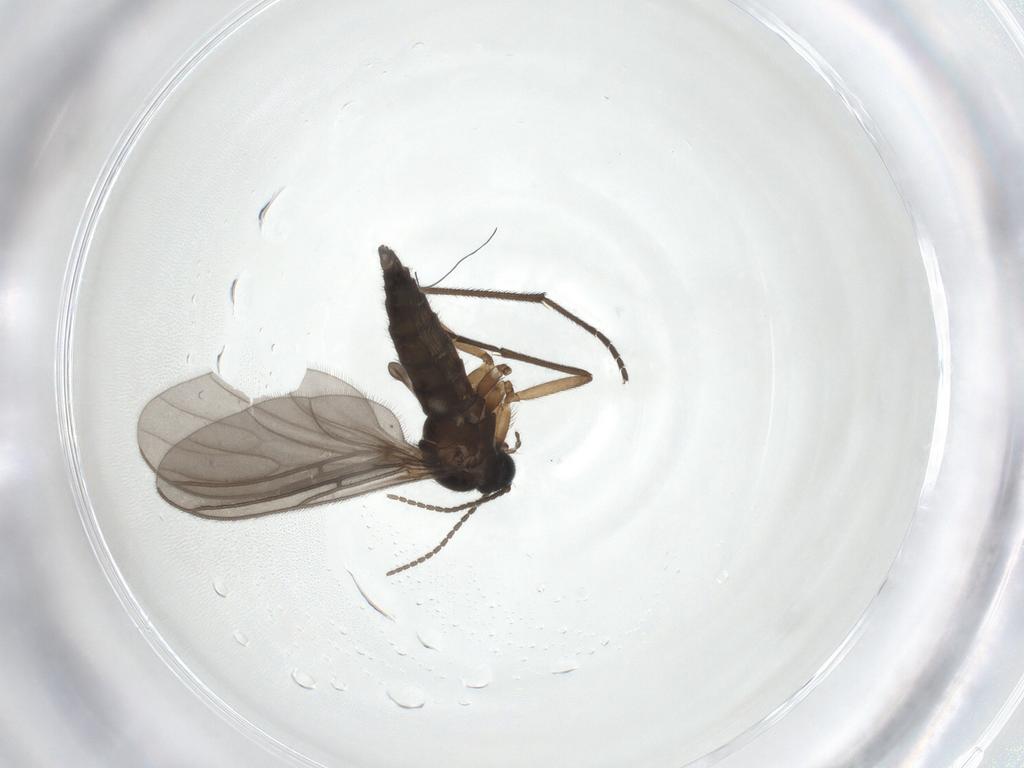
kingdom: Animalia
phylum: Arthropoda
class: Insecta
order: Diptera
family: Sciaridae
